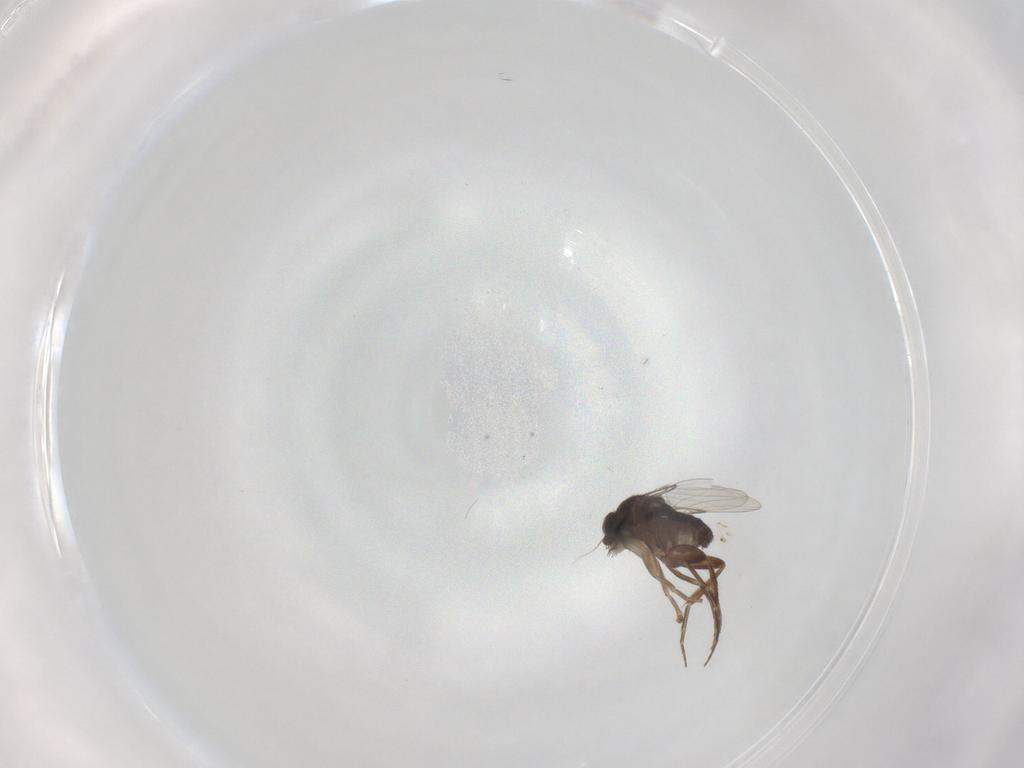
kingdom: Animalia
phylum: Arthropoda
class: Insecta
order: Diptera
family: Phoridae
